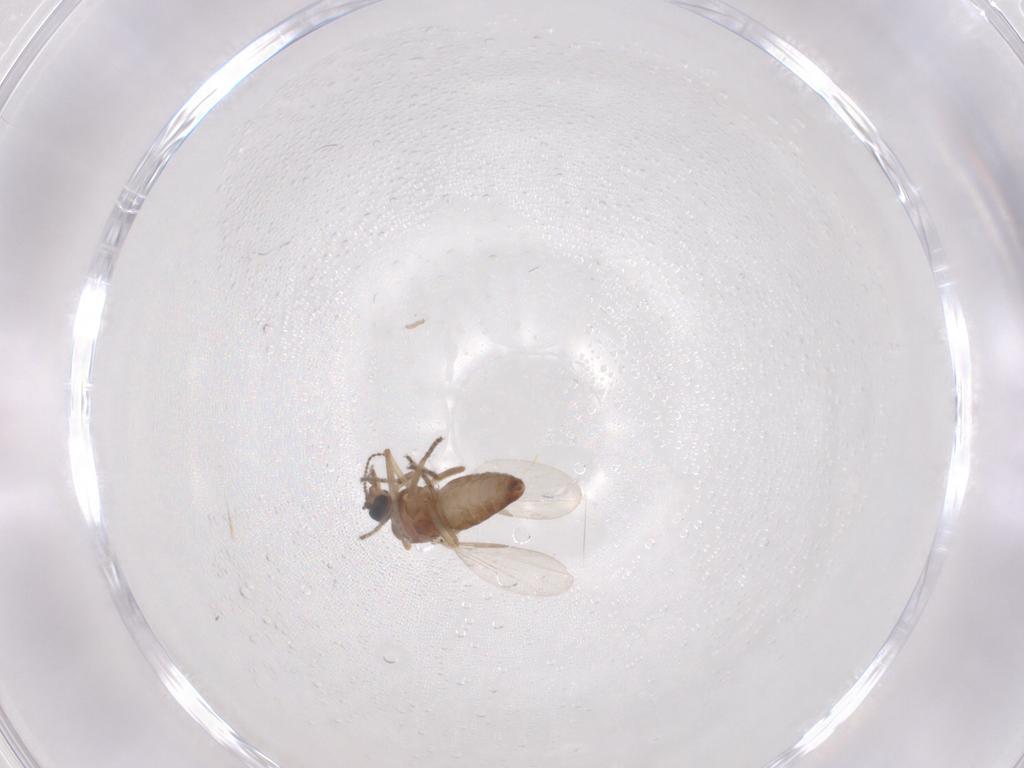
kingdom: Animalia
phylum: Arthropoda
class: Insecta
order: Diptera
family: Ceratopogonidae
